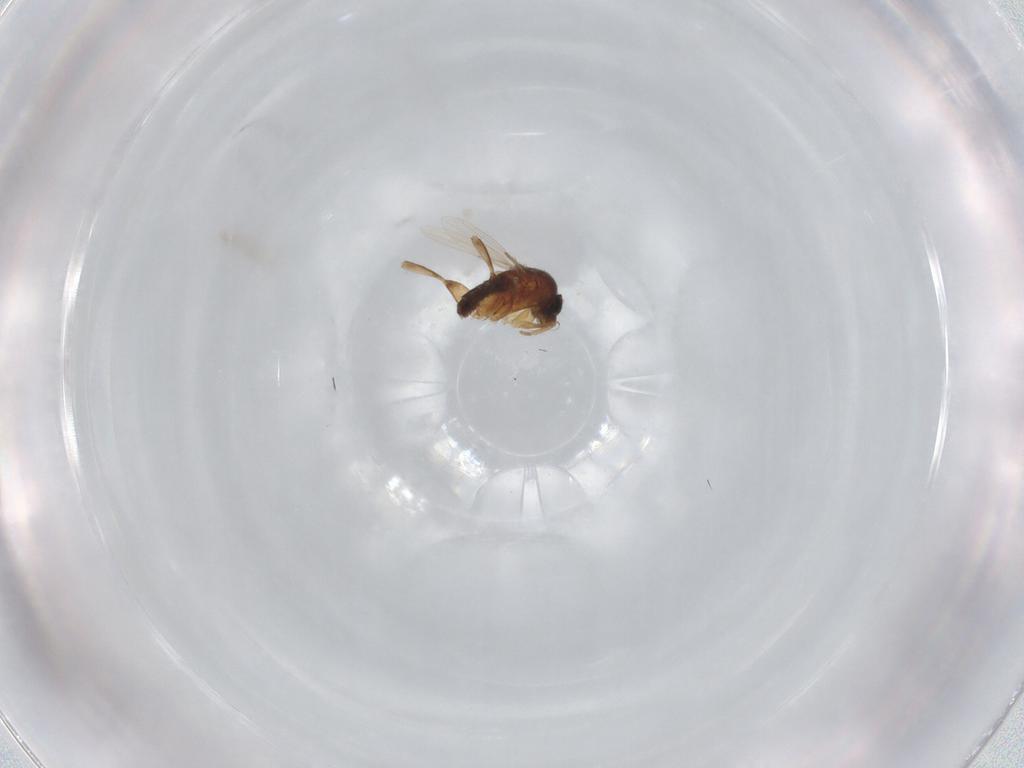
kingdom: Animalia
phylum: Arthropoda
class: Insecta
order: Diptera
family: Phoridae
